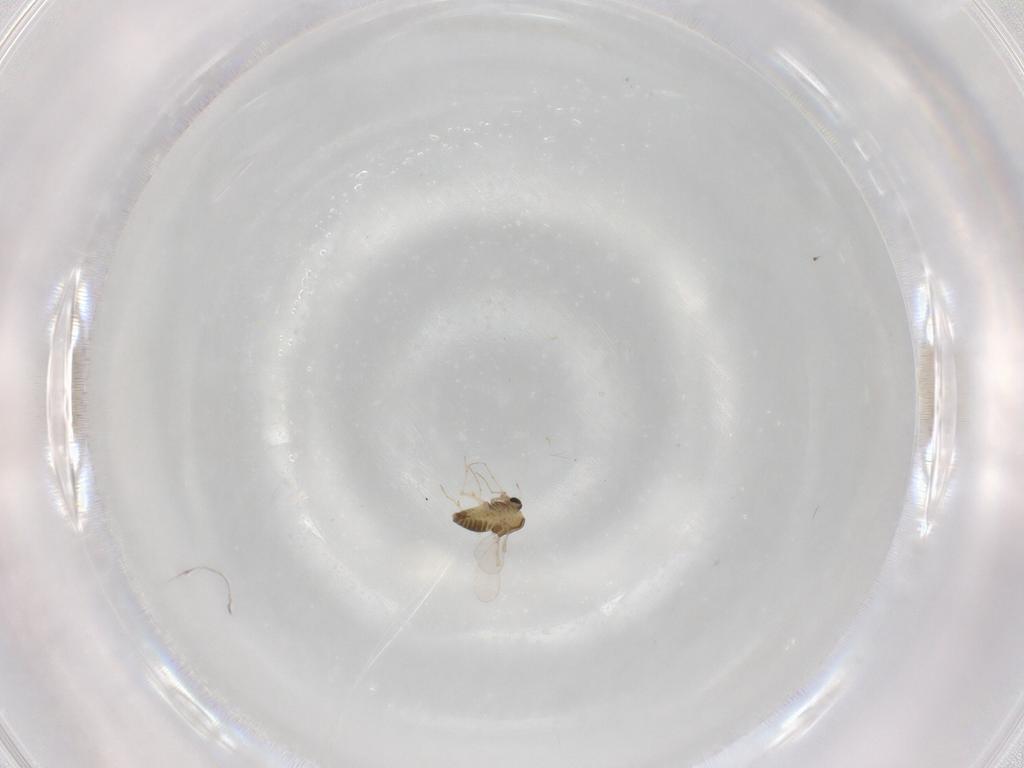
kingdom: Animalia
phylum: Arthropoda
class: Insecta
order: Diptera
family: Chironomidae
